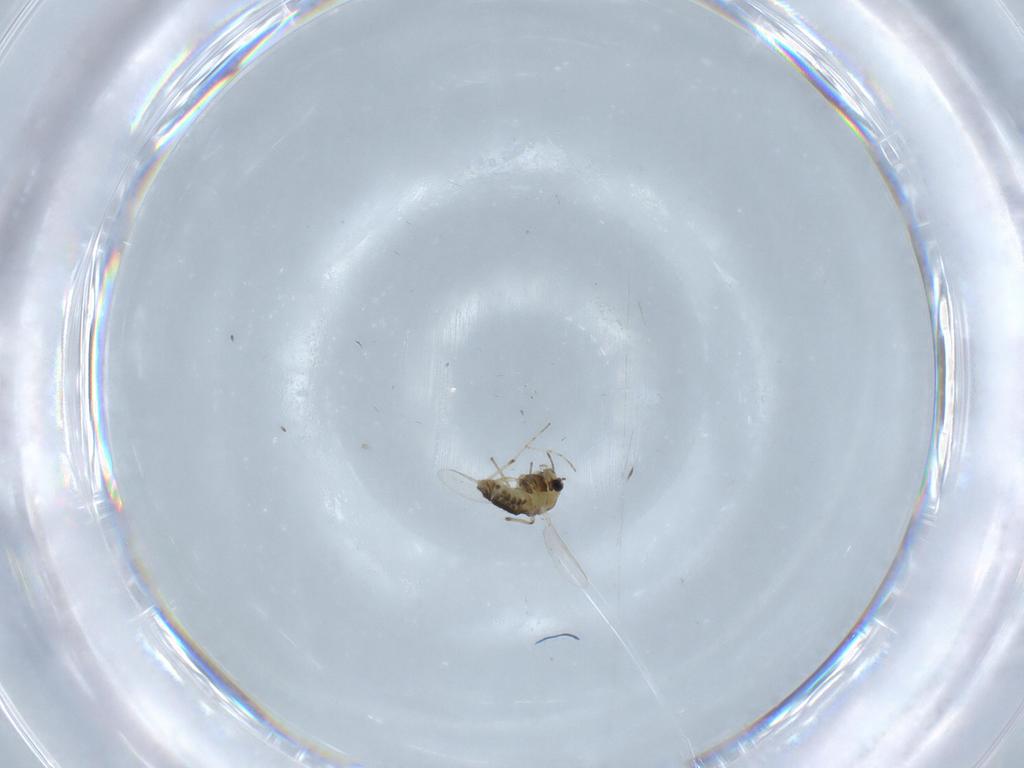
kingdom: Animalia
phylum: Arthropoda
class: Insecta
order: Diptera
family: Chironomidae
